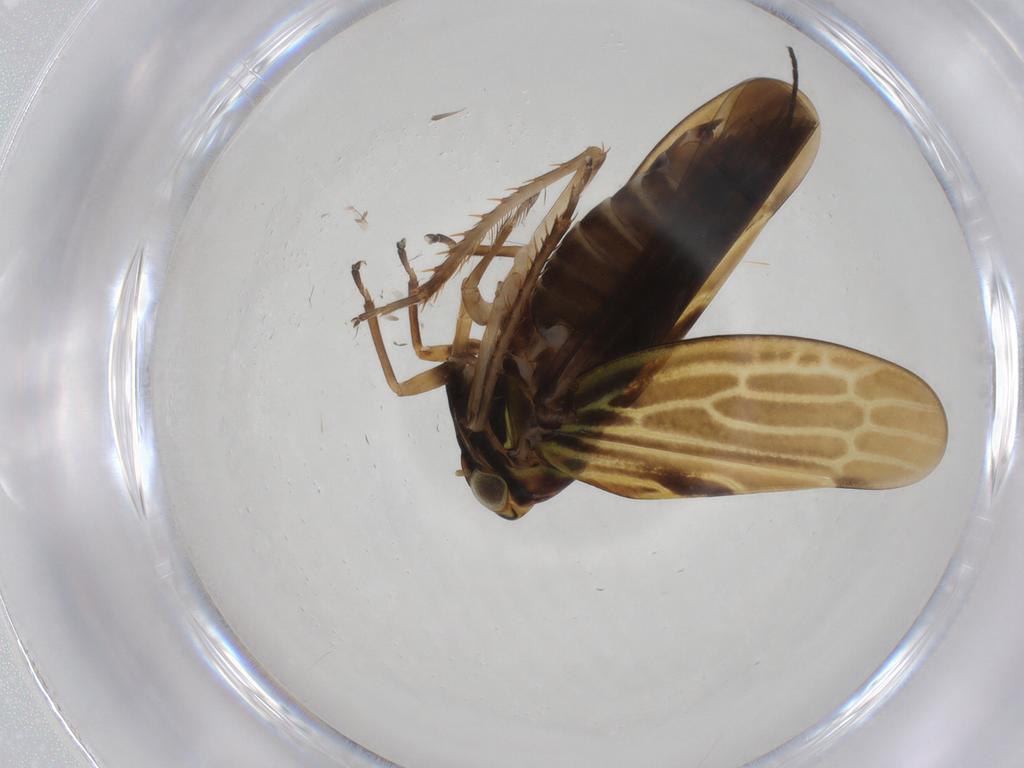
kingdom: Animalia
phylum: Arthropoda
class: Insecta
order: Hemiptera
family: Cicadellidae
